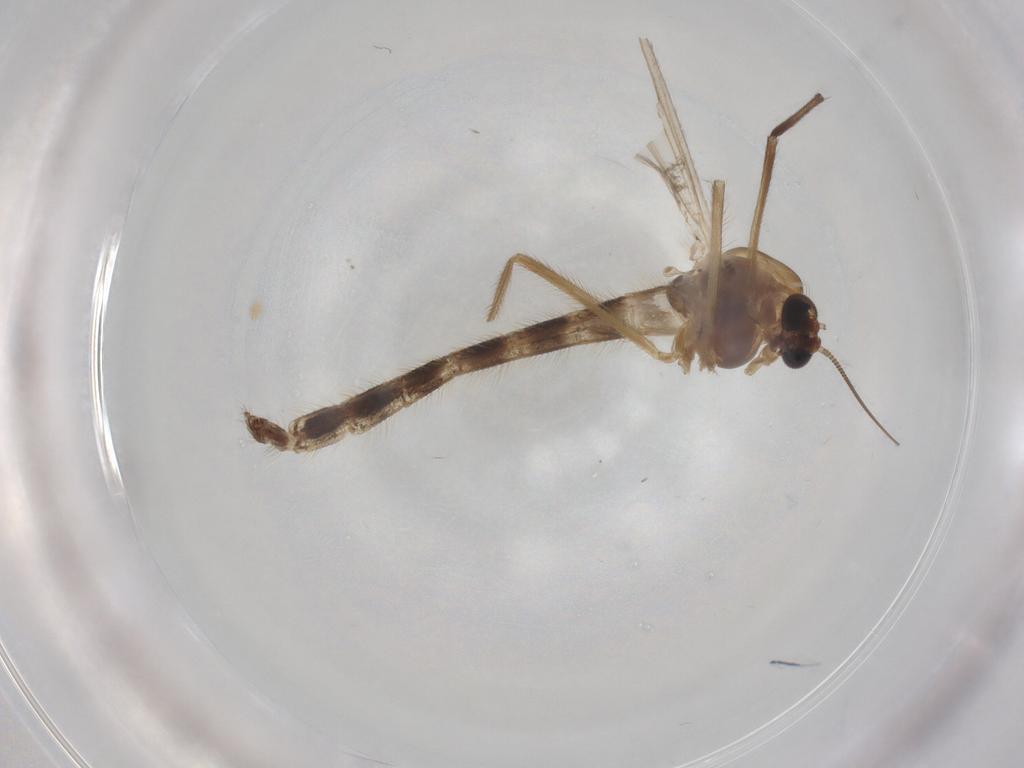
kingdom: Animalia
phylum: Arthropoda
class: Insecta
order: Diptera
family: Chironomidae
